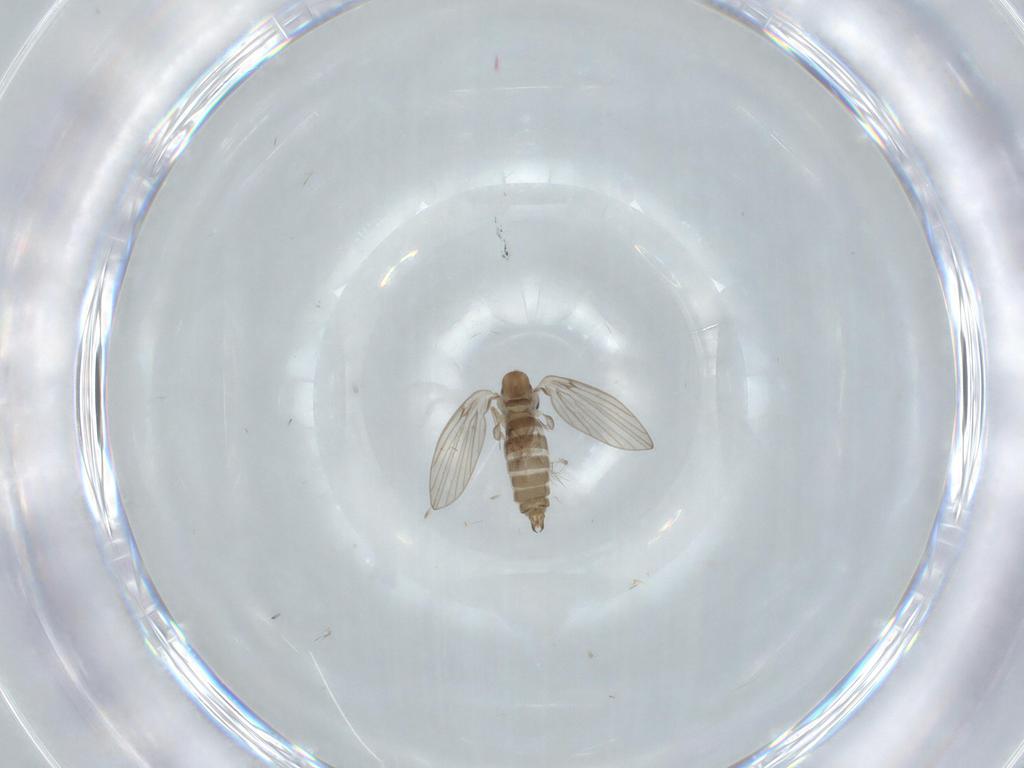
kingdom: Animalia
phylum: Arthropoda
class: Insecta
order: Diptera
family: Psychodidae
